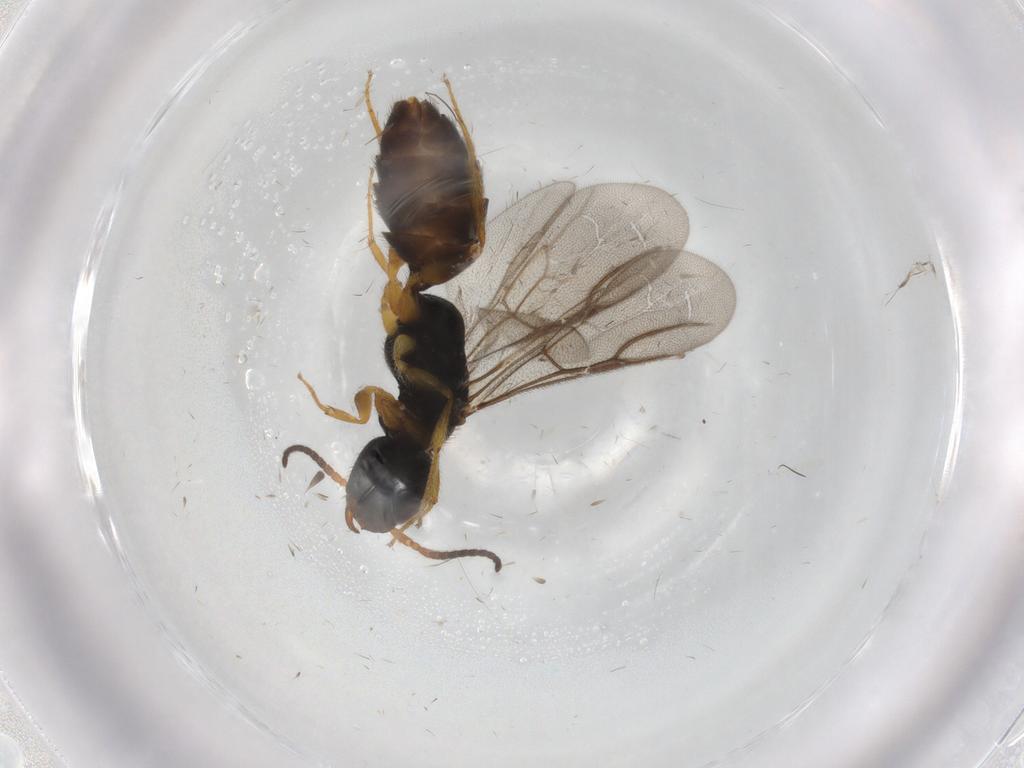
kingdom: Animalia
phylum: Arthropoda
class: Insecta
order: Hymenoptera
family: Bethylidae
